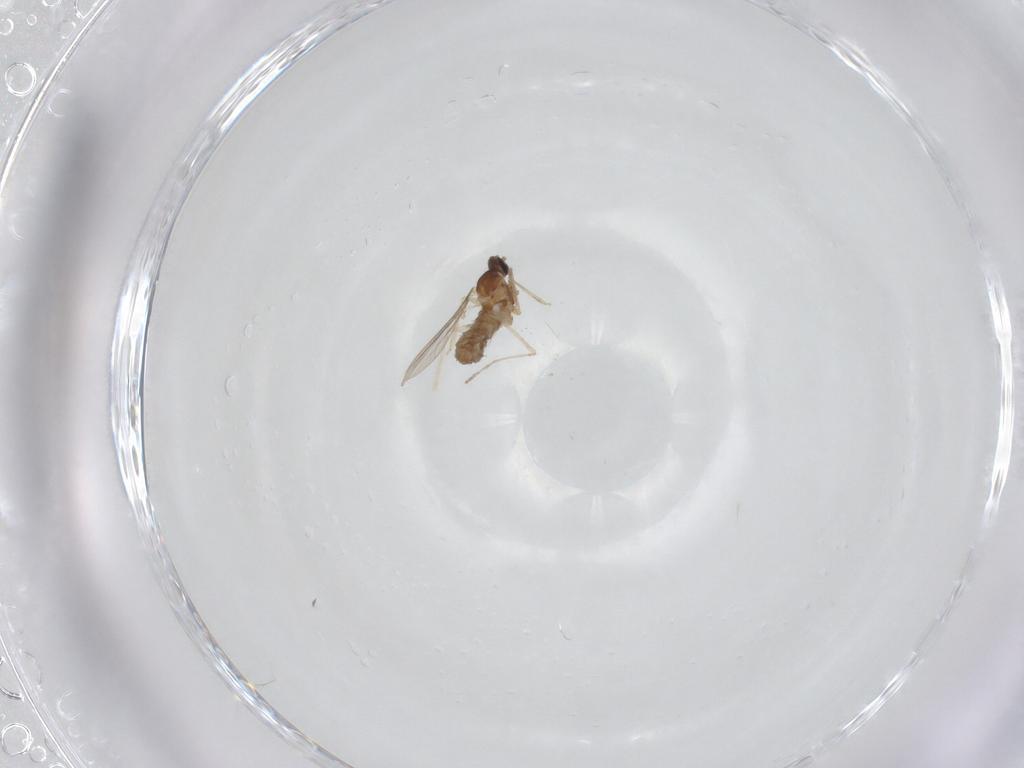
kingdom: Animalia
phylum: Arthropoda
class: Insecta
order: Diptera
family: Cecidomyiidae
